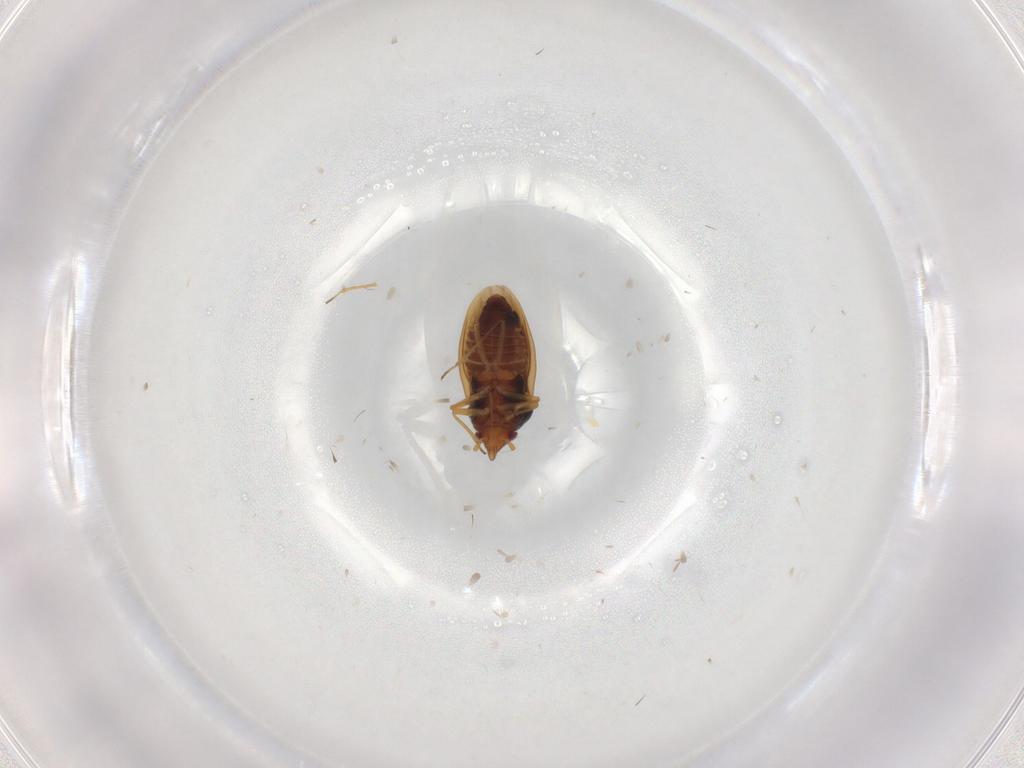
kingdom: Animalia
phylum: Arthropoda
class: Insecta
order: Hemiptera
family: Schizopteridae
